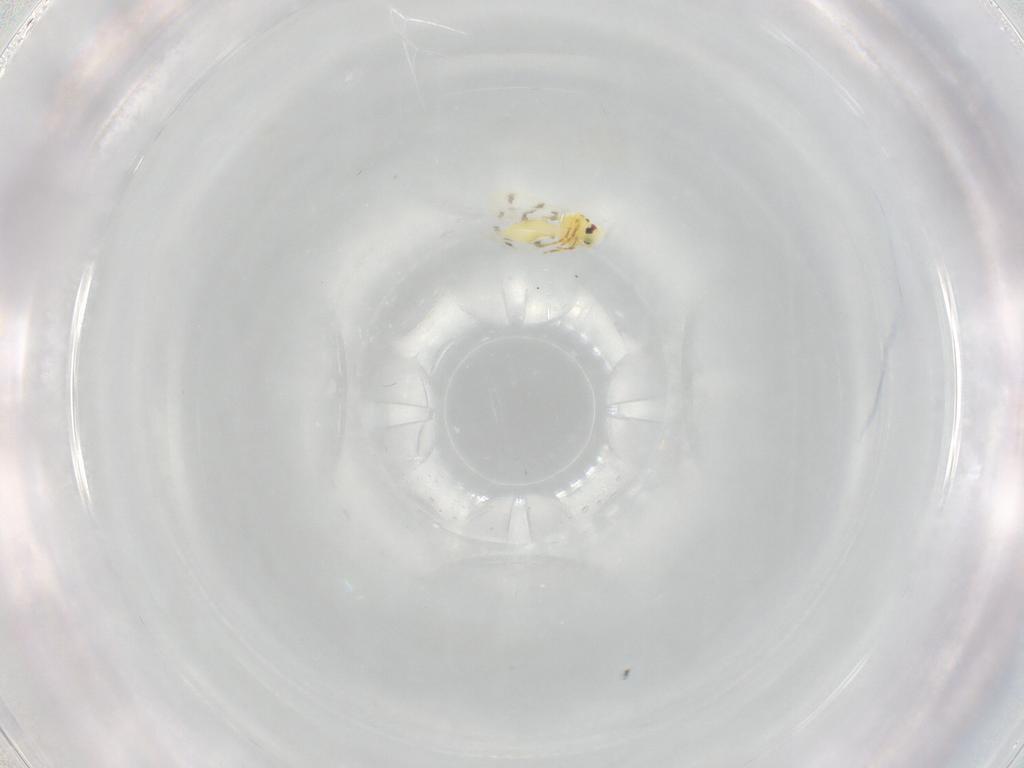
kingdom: Animalia
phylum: Arthropoda
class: Insecta
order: Hemiptera
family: Aleyrodidae
